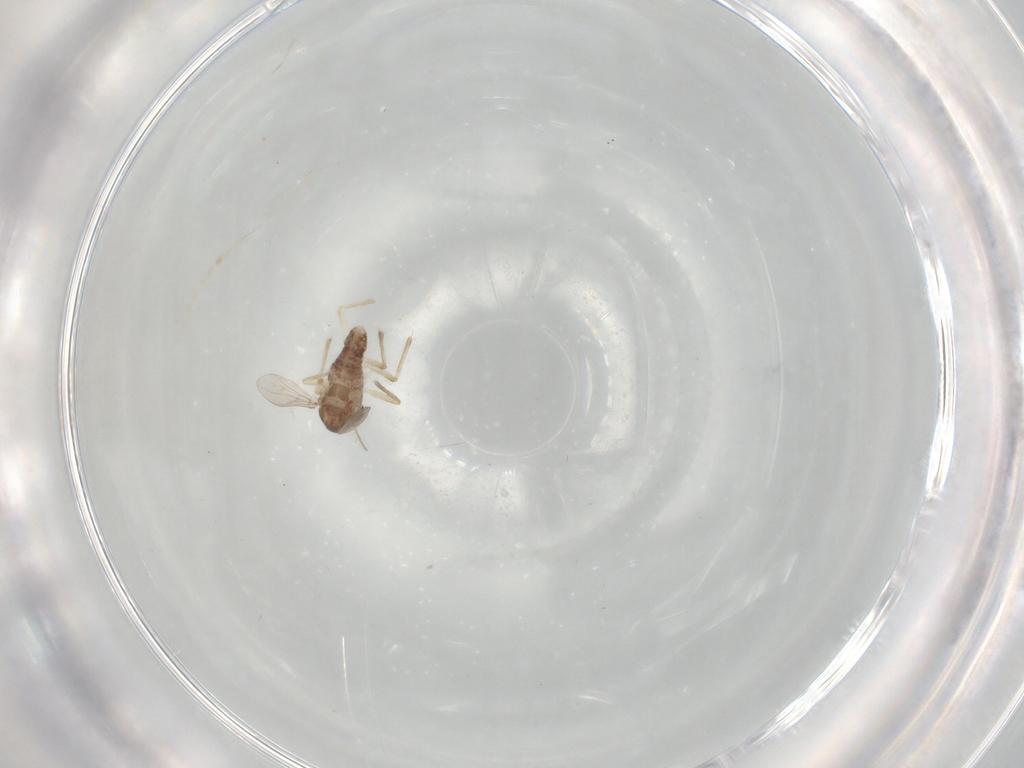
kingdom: Animalia
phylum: Arthropoda
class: Insecta
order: Diptera
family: Chironomidae
